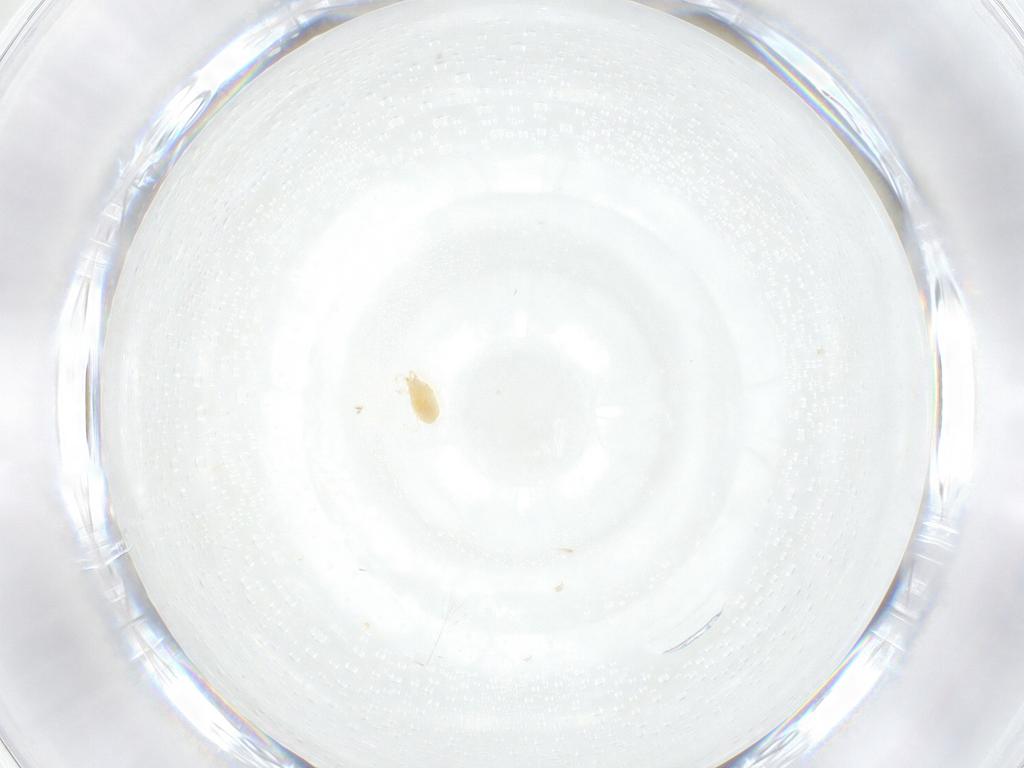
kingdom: Animalia
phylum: Arthropoda
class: Arachnida
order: Trombidiformes
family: Tetranychidae
